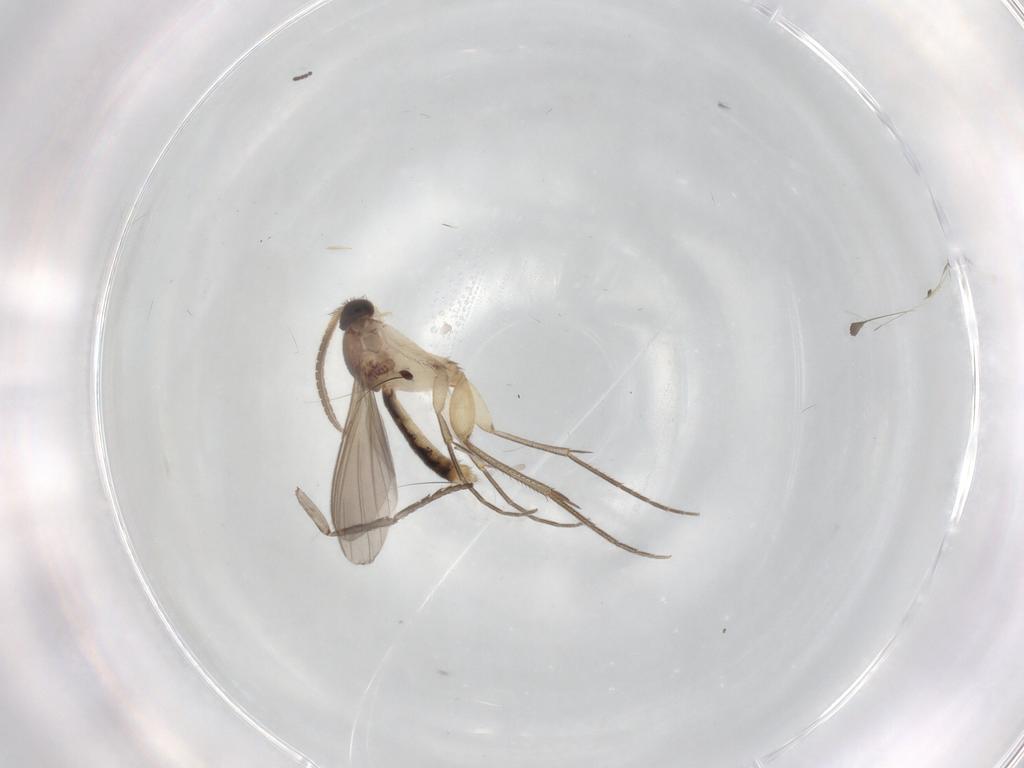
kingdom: Animalia
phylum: Arthropoda
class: Insecta
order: Diptera
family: Psychodidae
